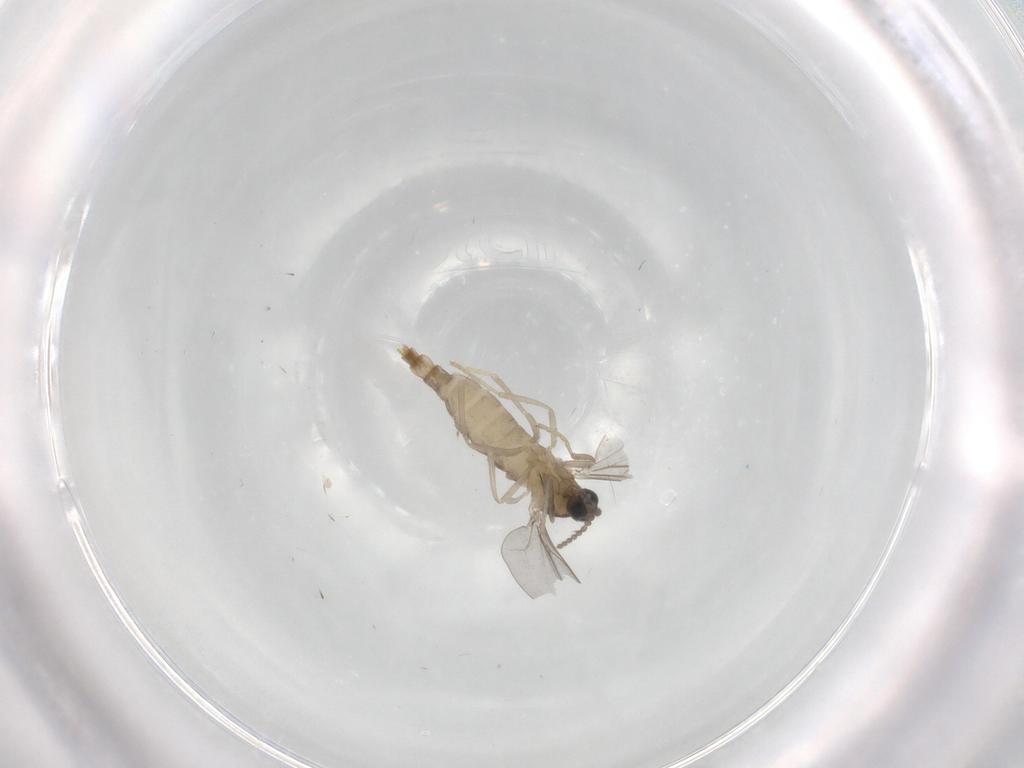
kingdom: Animalia
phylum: Arthropoda
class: Insecta
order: Diptera
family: Cecidomyiidae
